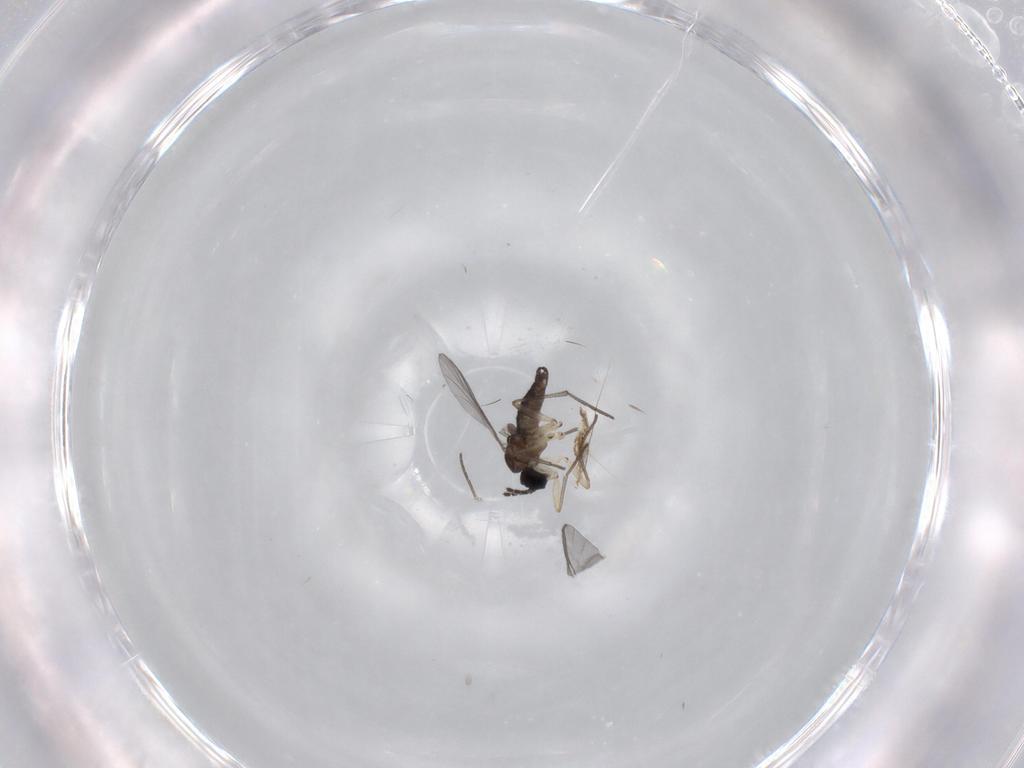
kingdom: Animalia
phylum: Arthropoda
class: Insecta
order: Diptera
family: Sciaridae
